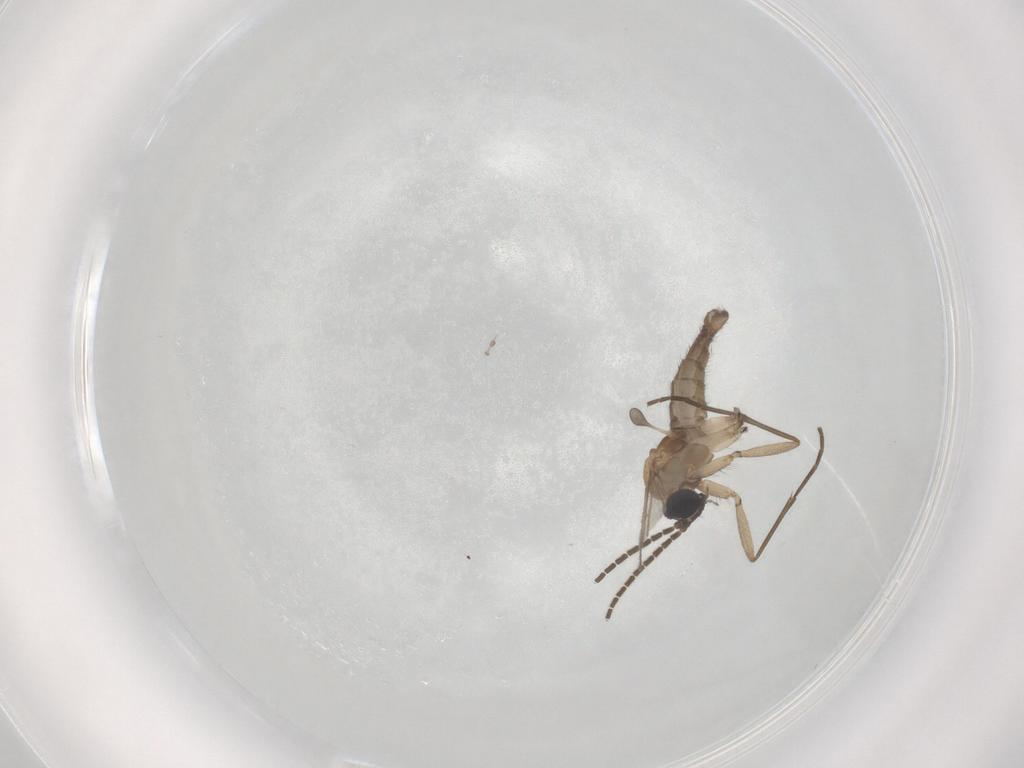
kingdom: Animalia
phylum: Arthropoda
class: Insecta
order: Diptera
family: Sciaridae
